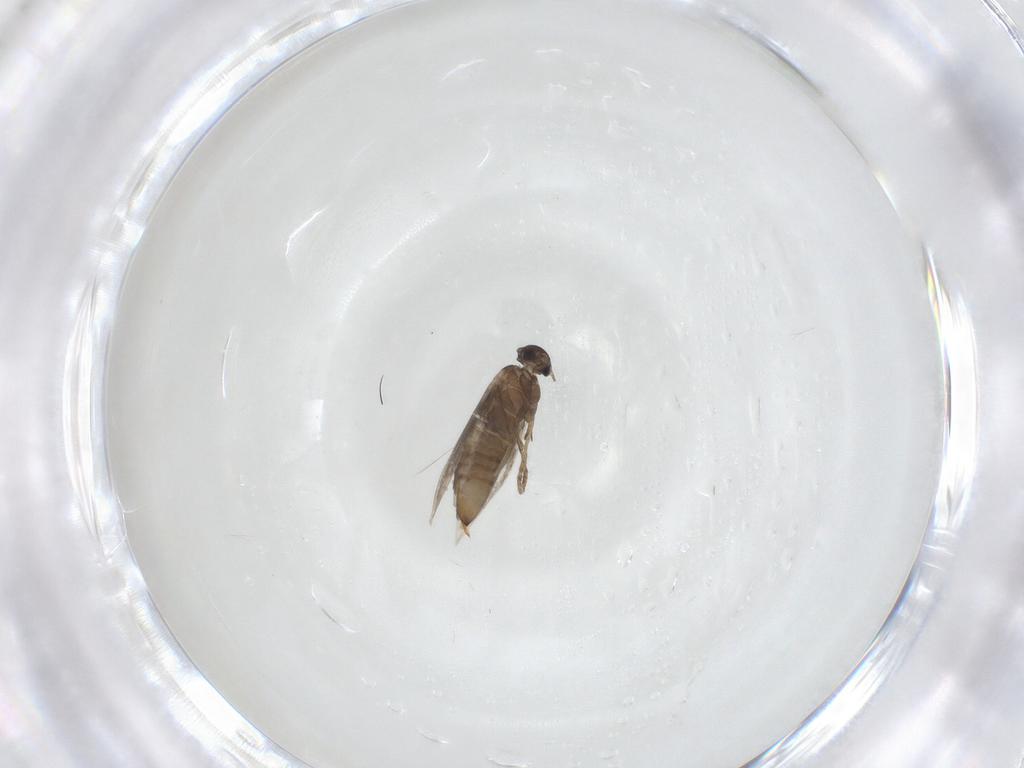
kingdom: Animalia
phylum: Arthropoda
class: Insecta
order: Lepidoptera
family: Heliozelidae
